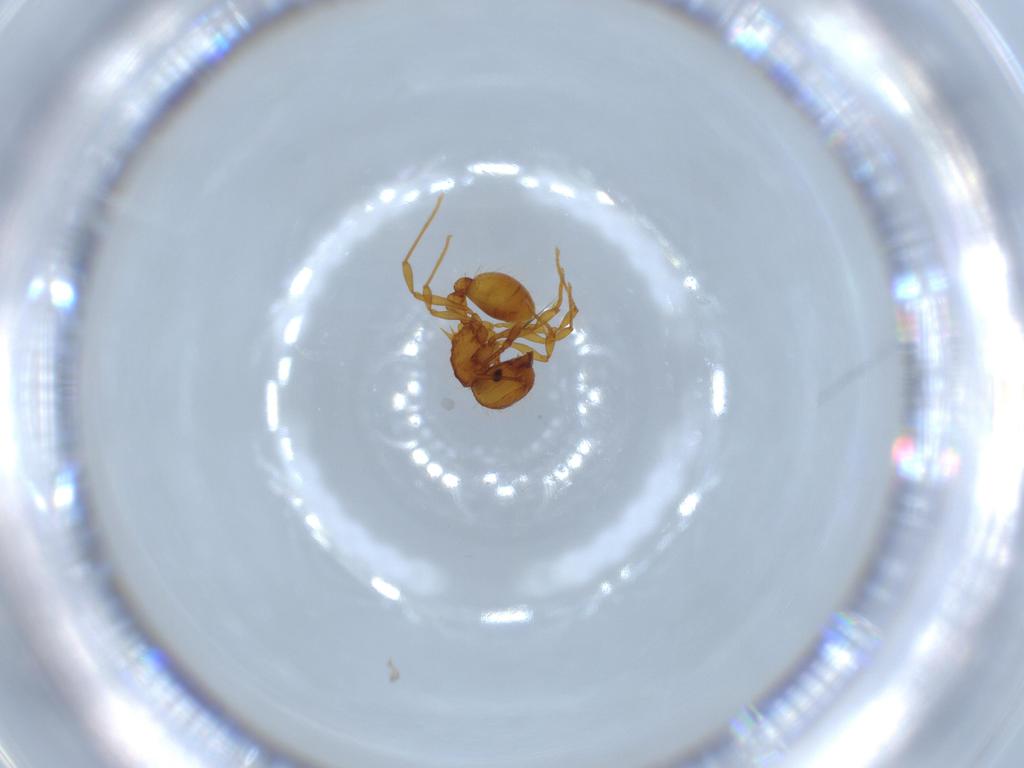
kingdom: Animalia
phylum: Arthropoda
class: Insecta
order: Hymenoptera
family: Formicidae
